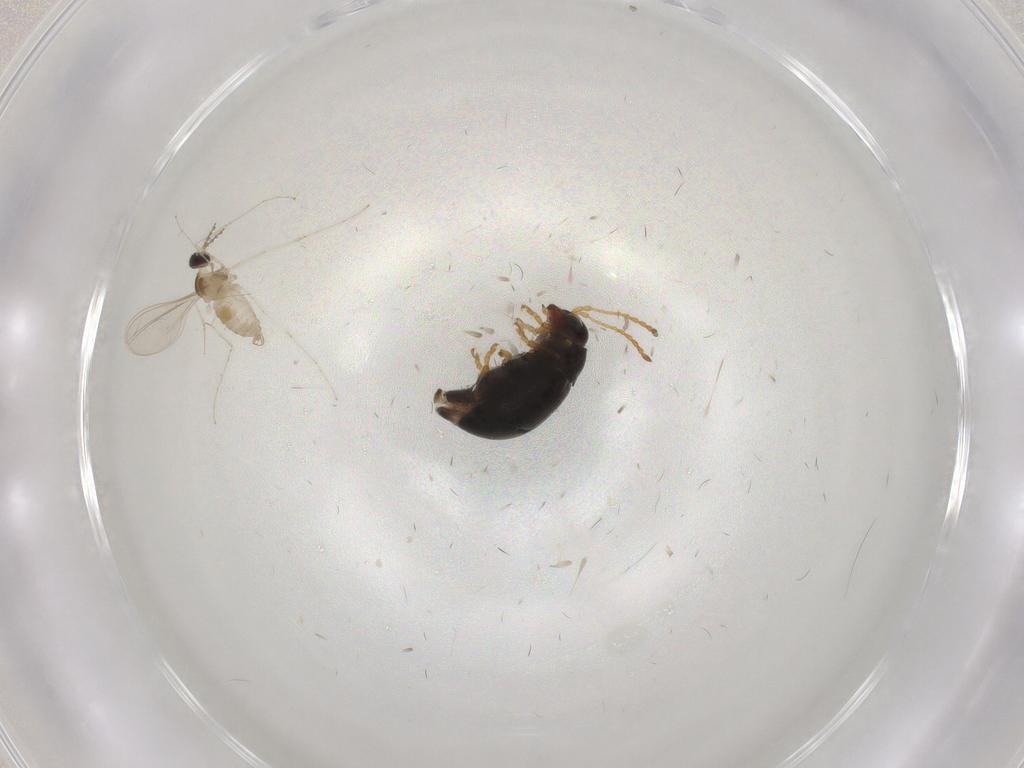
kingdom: Animalia
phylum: Arthropoda
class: Insecta
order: Diptera
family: Cecidomyiidae
